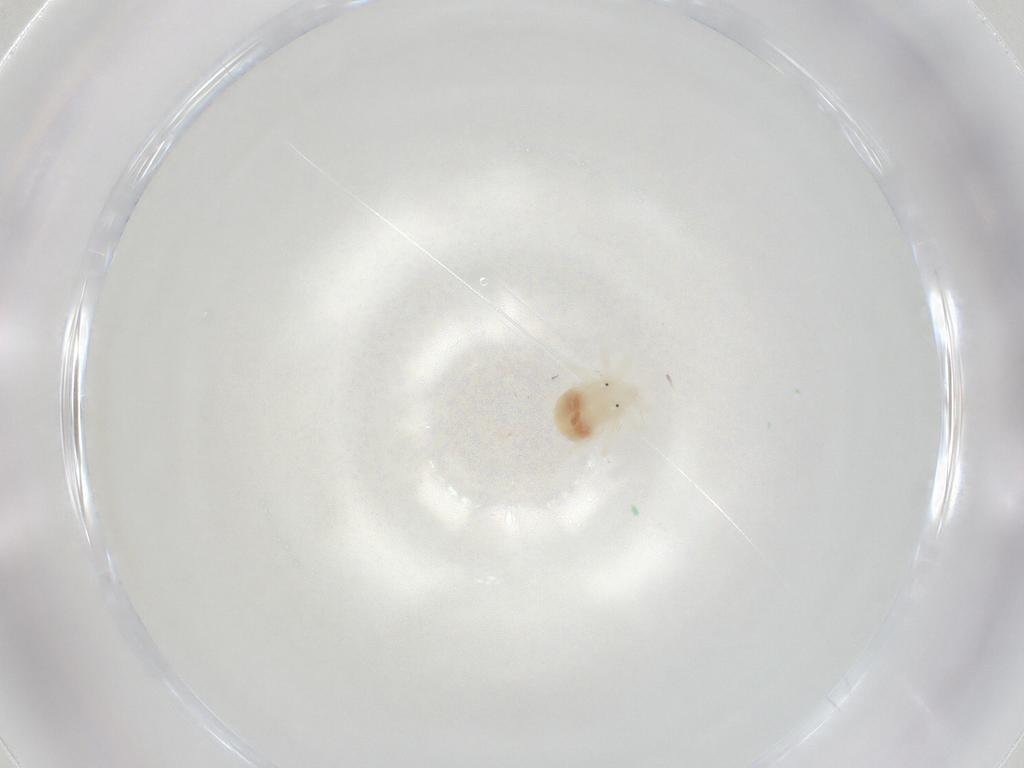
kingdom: Animalia
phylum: Arthropoda
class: Arachnida
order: Trombidiformes
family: Anystidae
